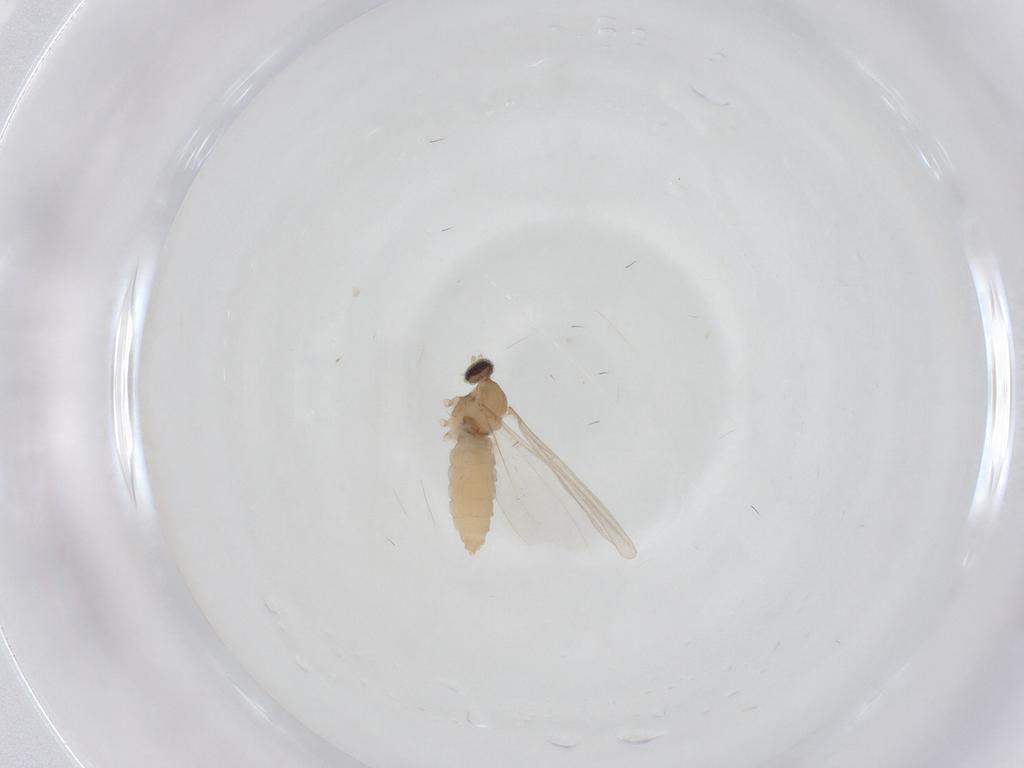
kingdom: Animalia
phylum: Arthropoda
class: Insecta
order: Diptera
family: Cecidomyiidae
